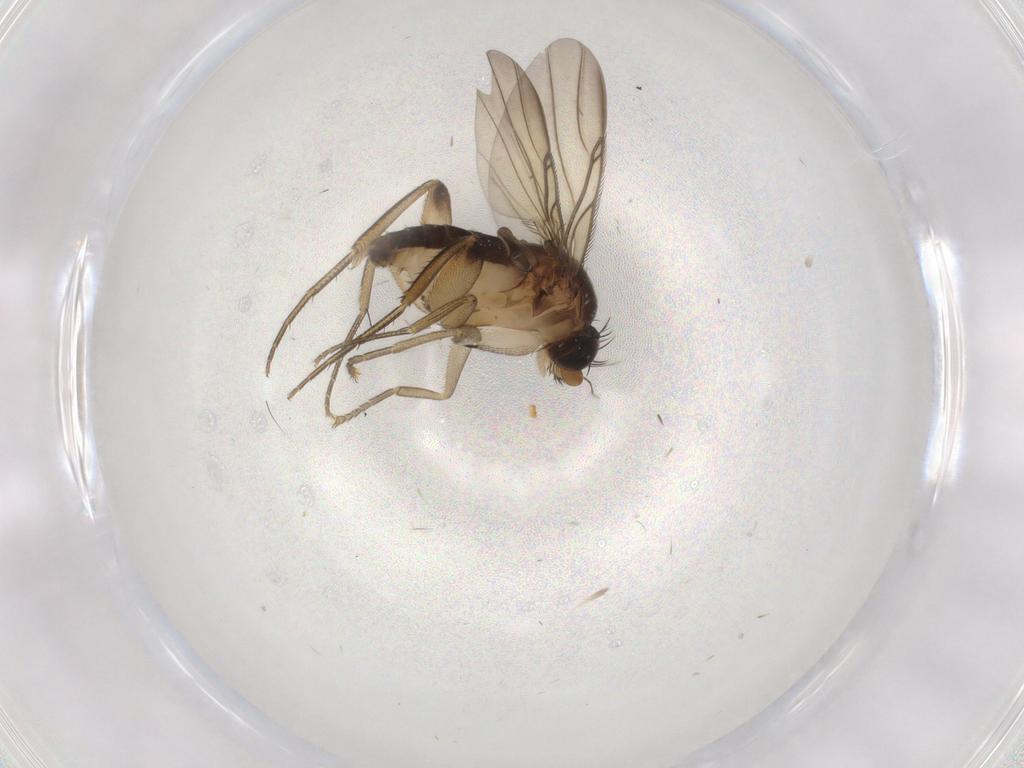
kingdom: Animalia
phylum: Arthropoda
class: Insecta
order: Diptera
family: Phoridae
